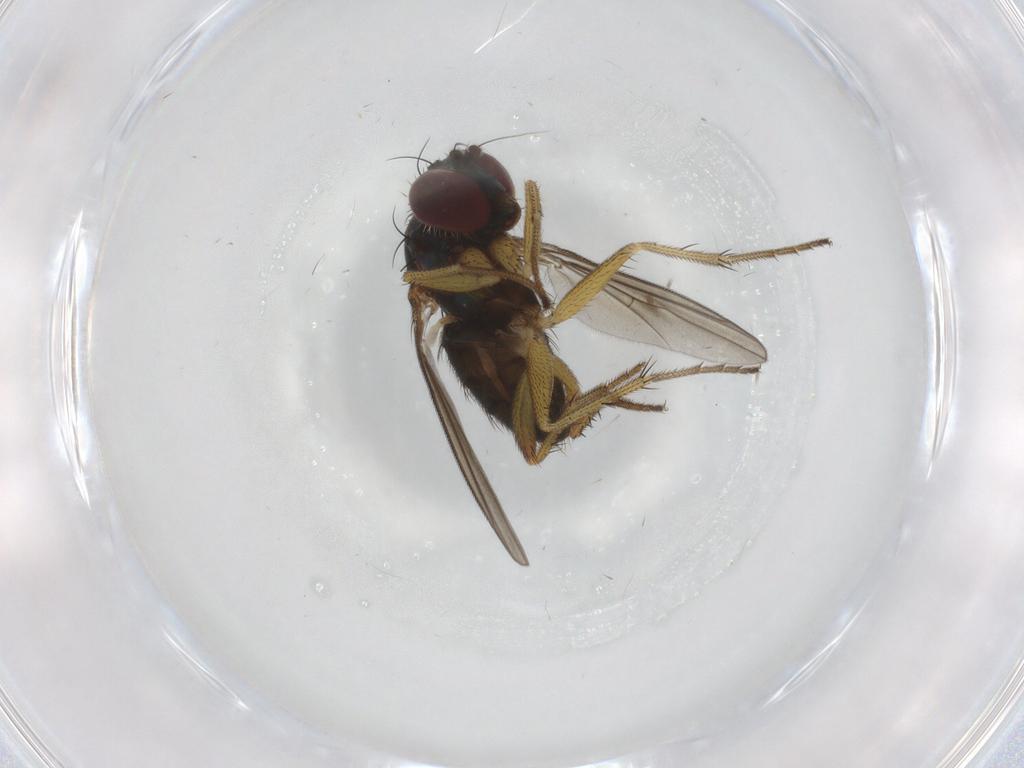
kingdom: Animalia
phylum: Arthropoda
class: Insecta
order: Diptera
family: Dolichopodidae
